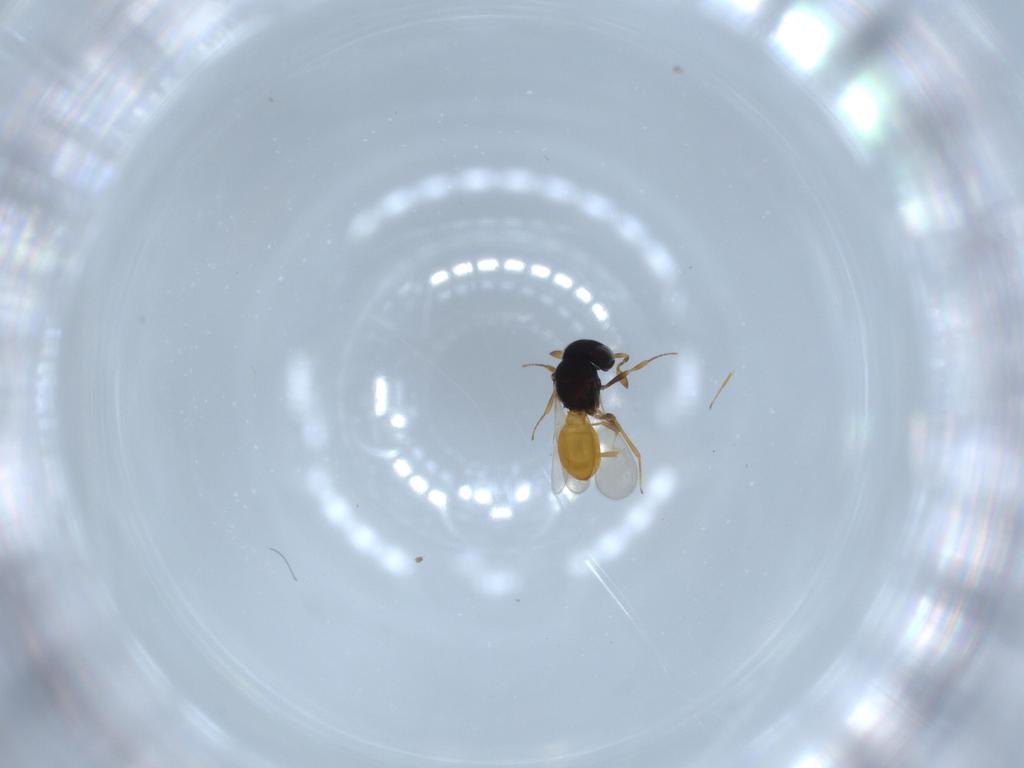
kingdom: Animalia
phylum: Arthropoda
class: Insecta
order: Hymenoptera
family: Scelionidae
